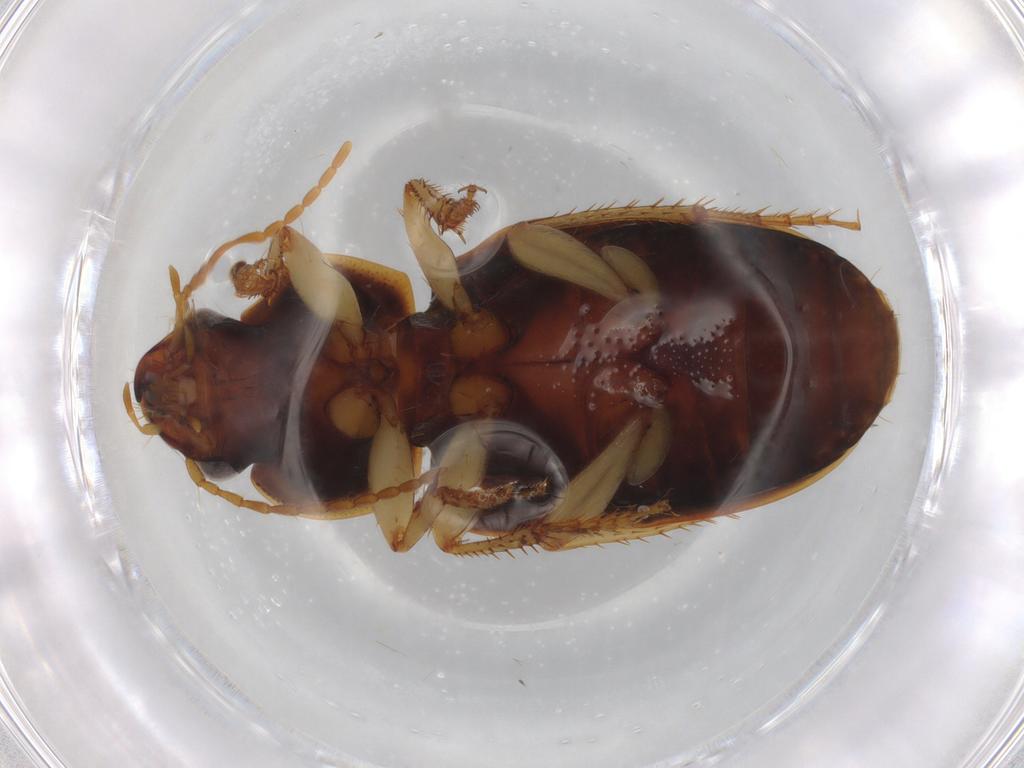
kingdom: Animalia
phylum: Arthropoda
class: Insecta
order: Coleoptera
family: Carabidae
